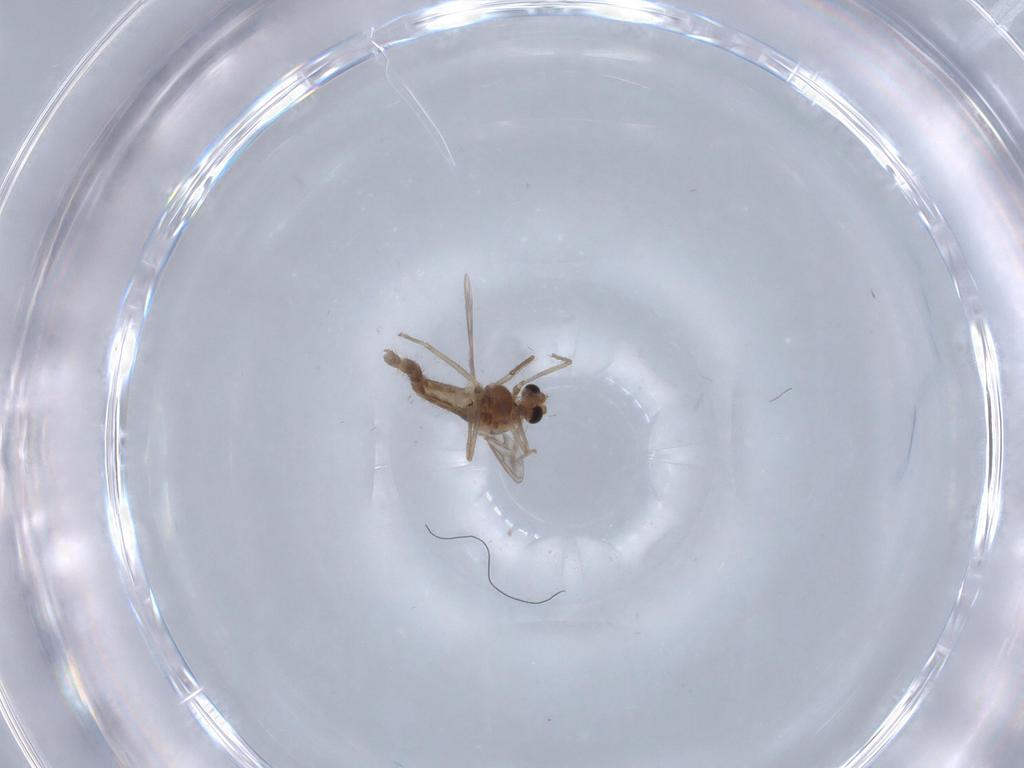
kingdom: Animalia
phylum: Arthropoda
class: Insecta
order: Diptera
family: Chironomidae
